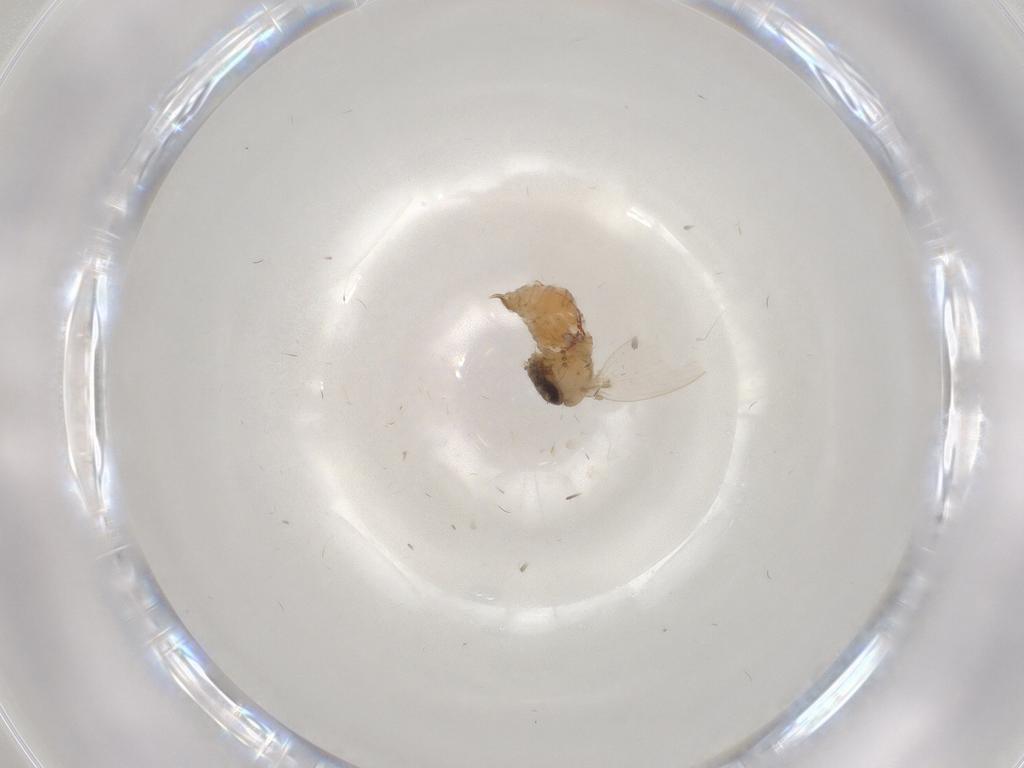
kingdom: Animalia
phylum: Arthropoda
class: Insecta
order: Diptera
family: Psychodidae
